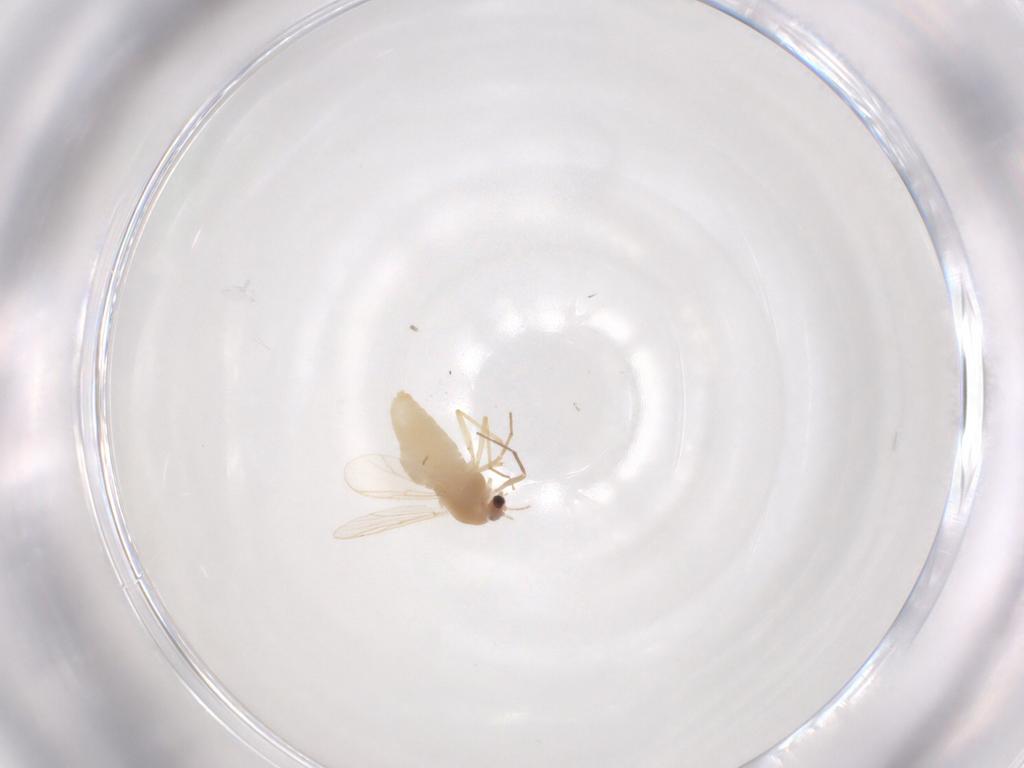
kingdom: Animalia
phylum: Arthropoda
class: Insecta
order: Diptera
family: Chironomidae
